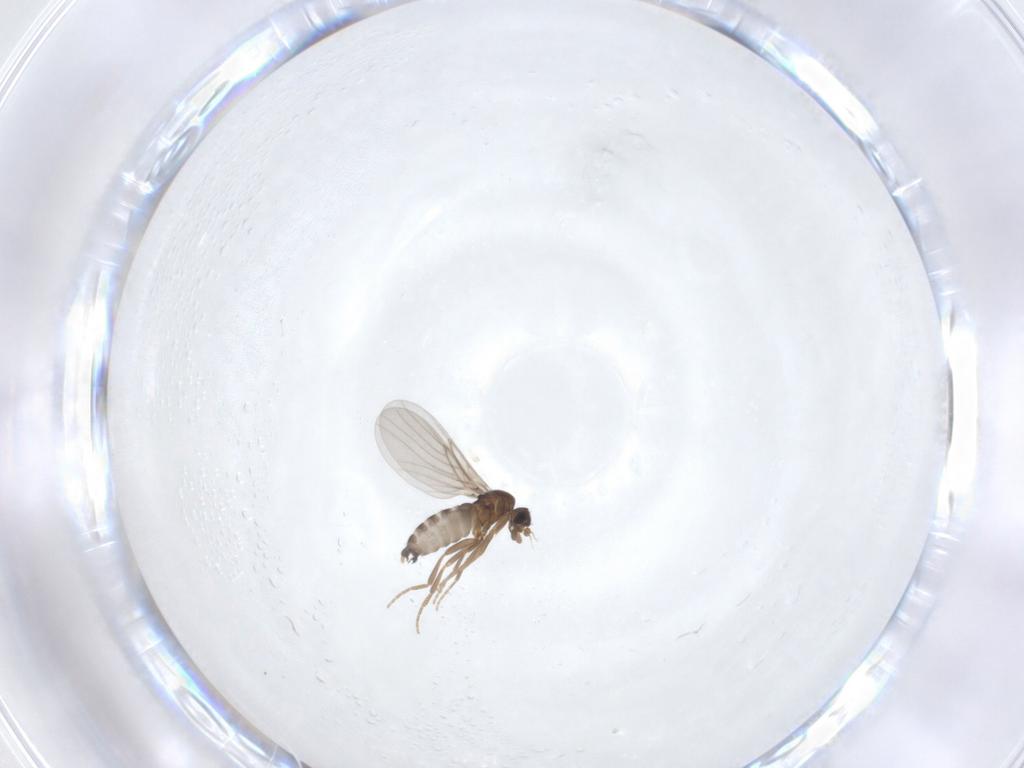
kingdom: Animalia
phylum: Arthropoda
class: Insecta
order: Diptera
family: Phoridae
